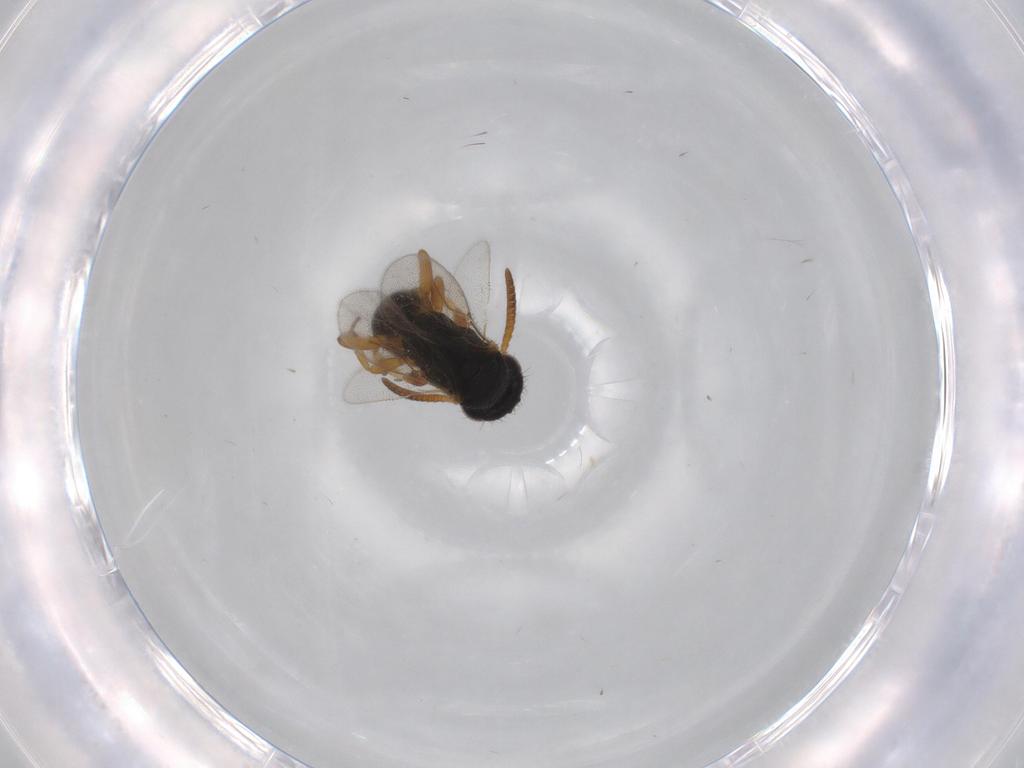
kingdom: Animalia
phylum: Arthropoda
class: Insecta
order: Hymenoptera
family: Bethylidae
